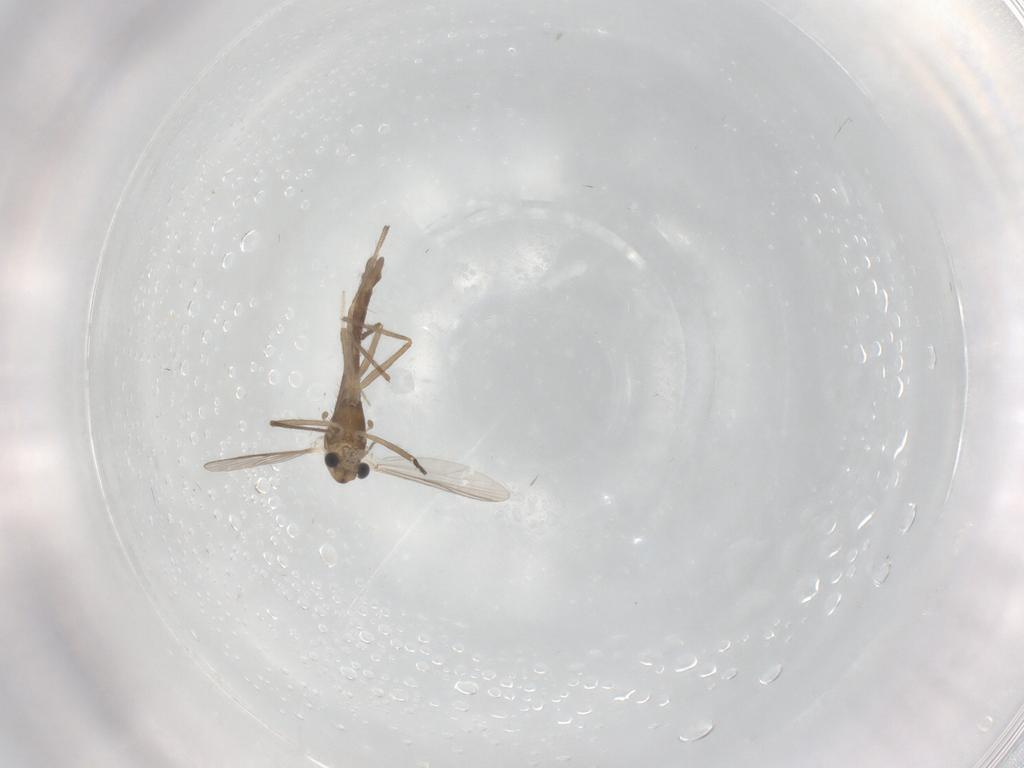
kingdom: Animalia
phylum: Arthropoda
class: Insecta
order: Diptera
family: Chironomidae
